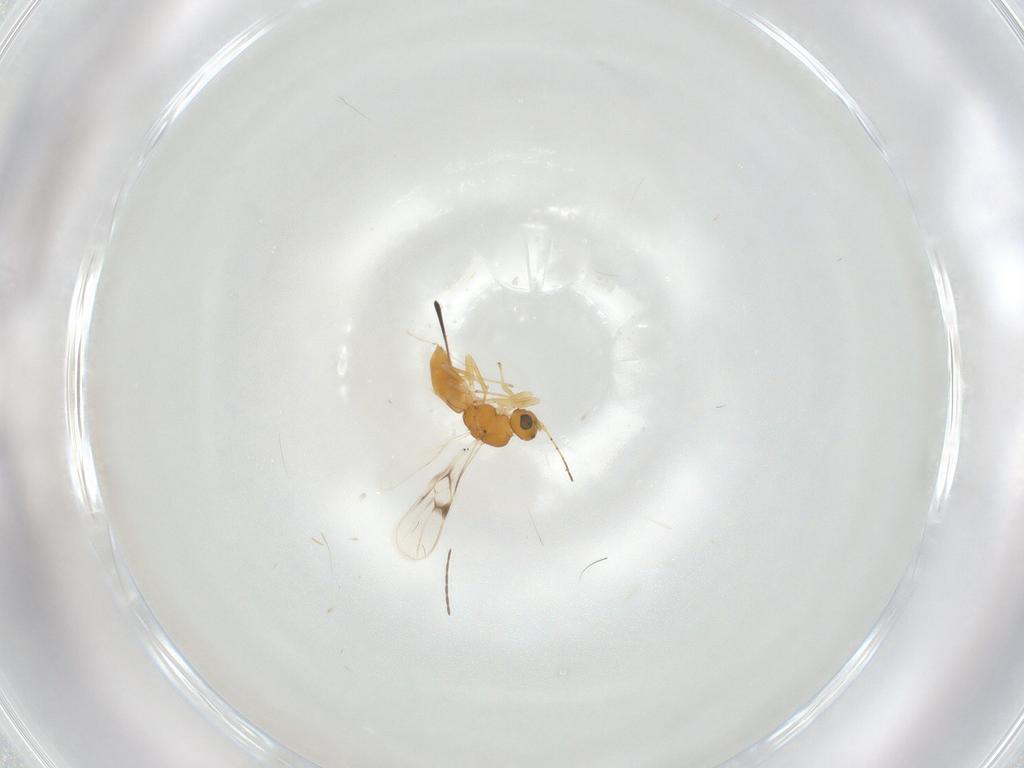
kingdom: Animalia
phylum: Arthropoda
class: Insecta
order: Hymenoptera
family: Braconidae
